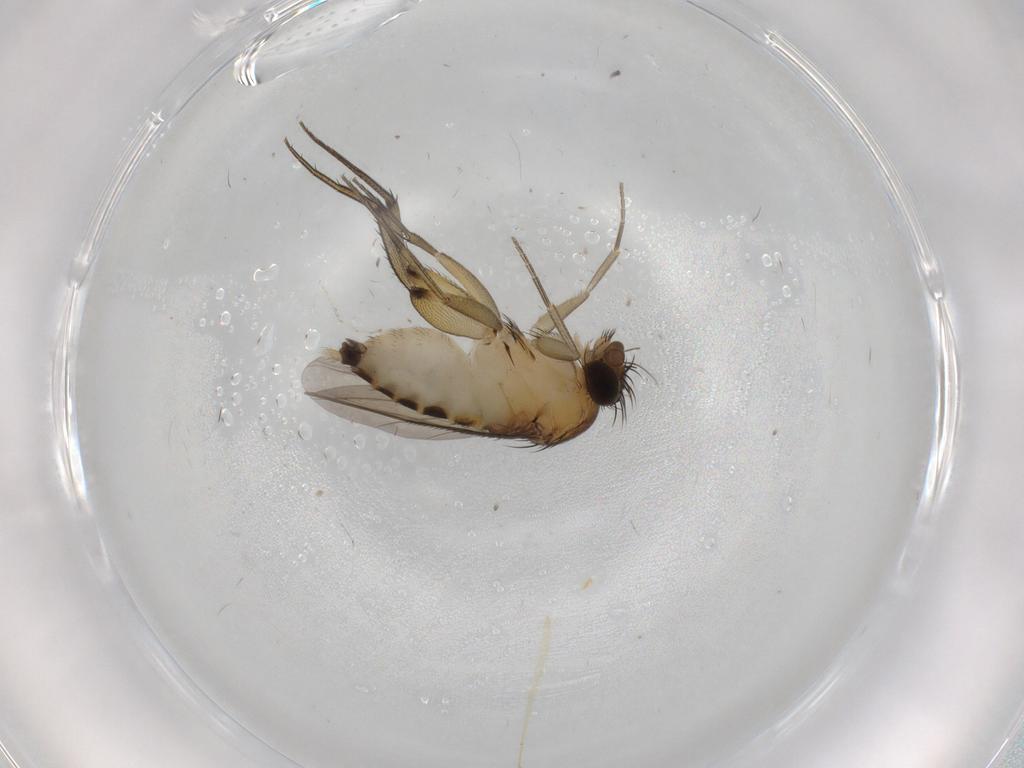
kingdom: Animalia
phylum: Arthropoda
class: Insecta
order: Diptera
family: Phoridae
